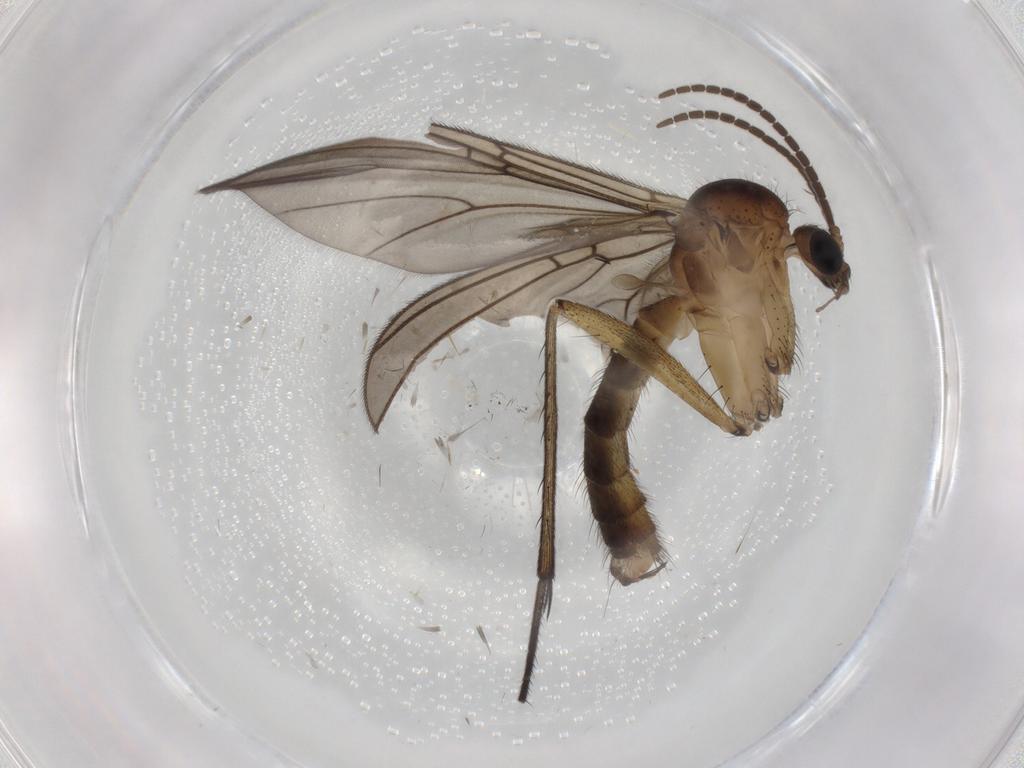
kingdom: Animalia
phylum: Arthropoda
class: Insecta
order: Diptera
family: Mycetophilidae
